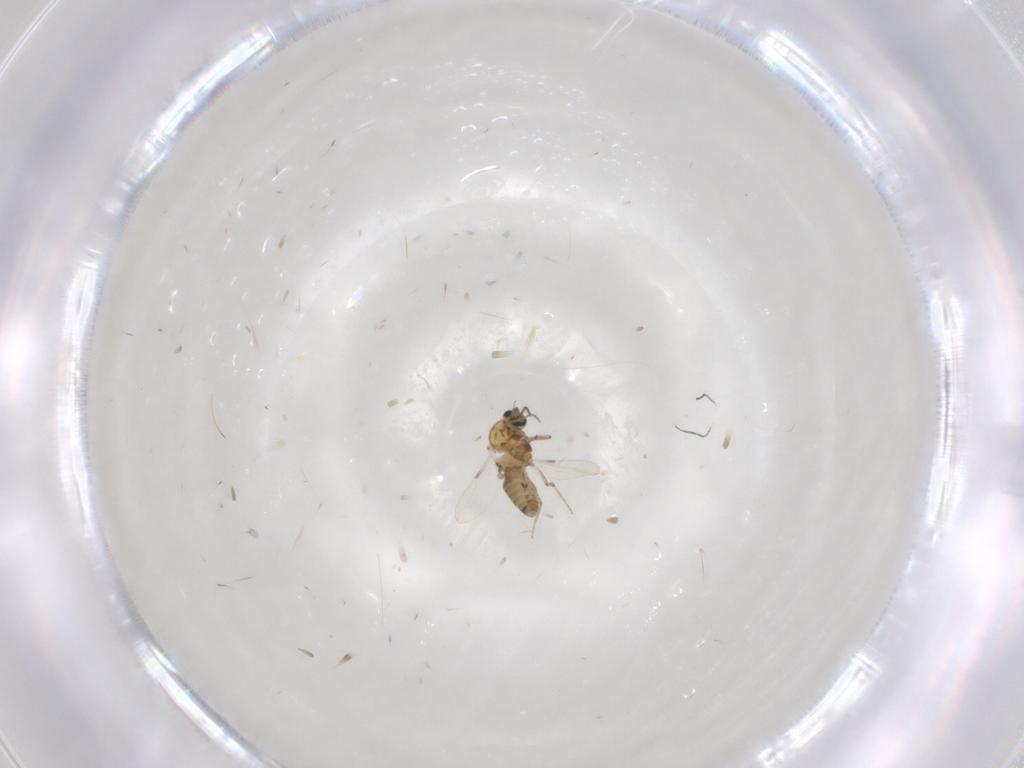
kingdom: Animalia
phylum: Arthropoda
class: Insecta
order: Diptera
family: Ceratopogonidae
